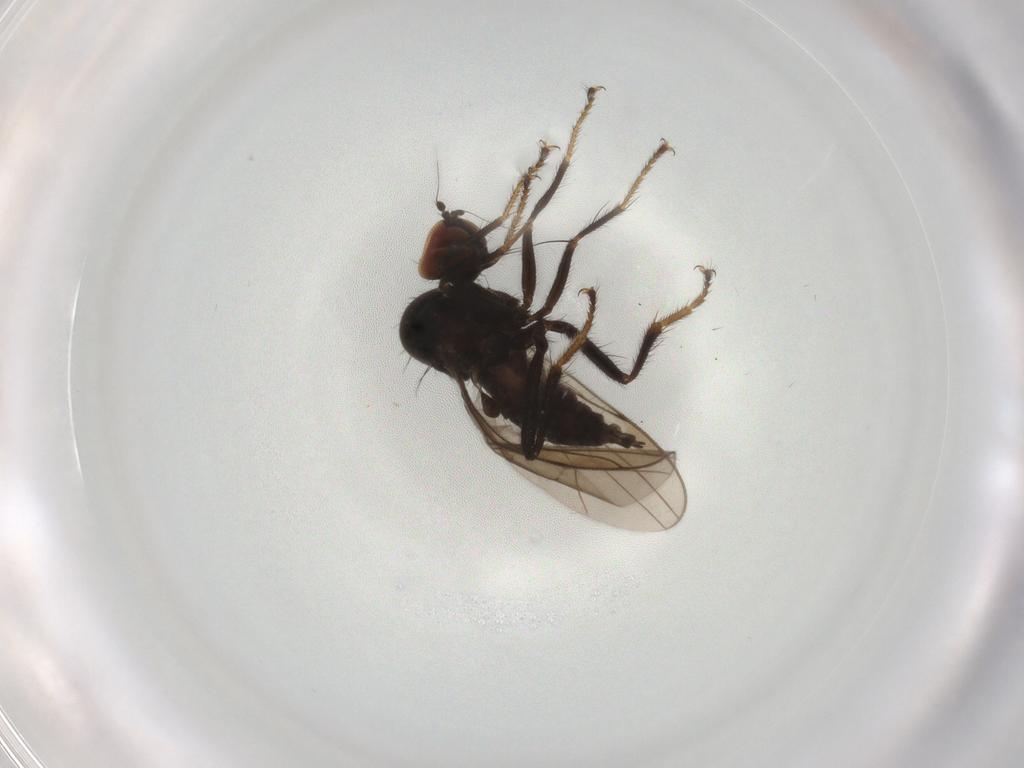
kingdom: Animalia
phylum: Arthropoda
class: Insecta
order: Diptera
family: Hybotidae
